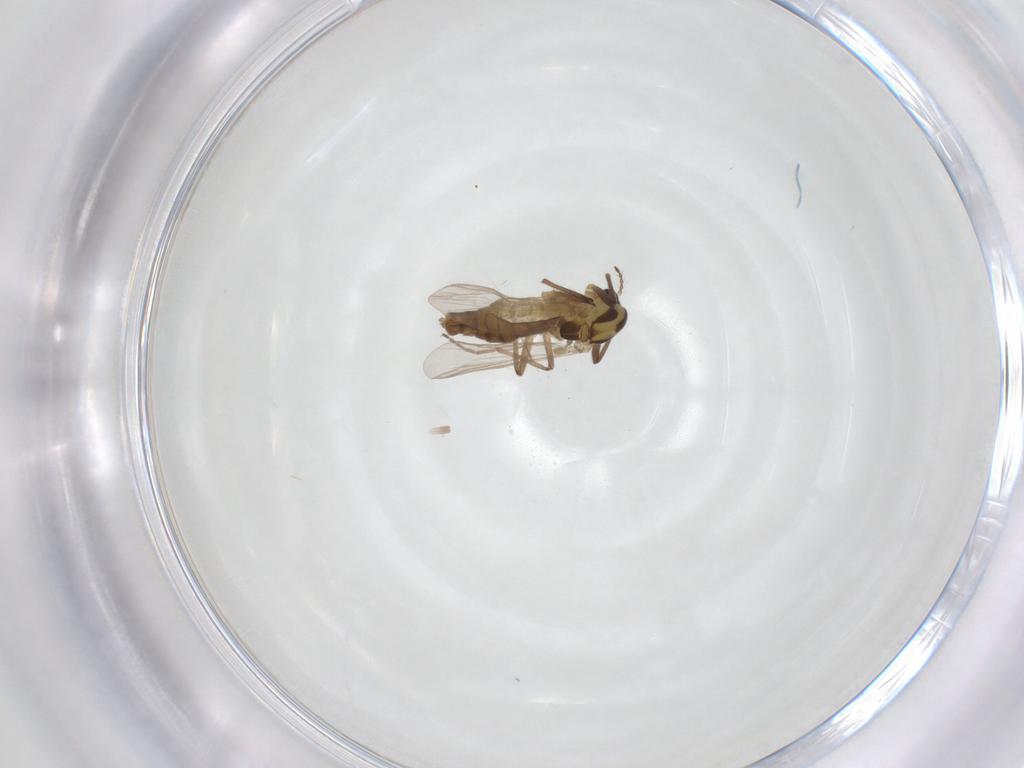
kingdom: Animalia
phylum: Arthropoda
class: Insecta
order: Diptera
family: Chironomidae
